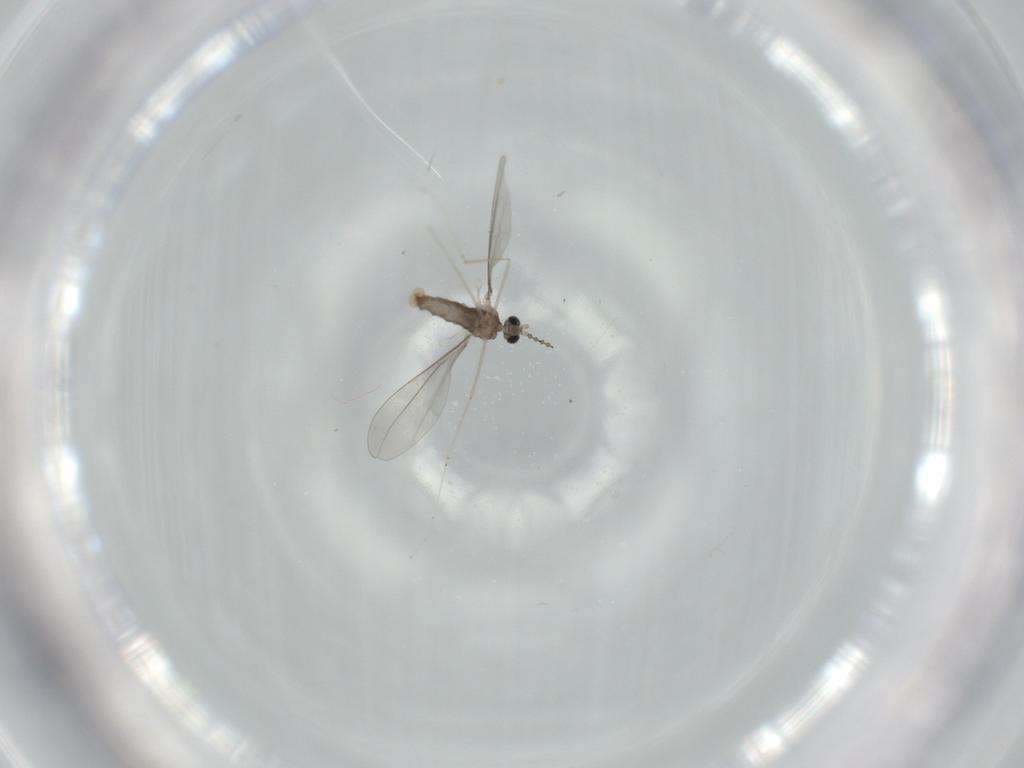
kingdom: Animalia
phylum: Arthropoda
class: Insecta
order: Diptera
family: Chironomidae
